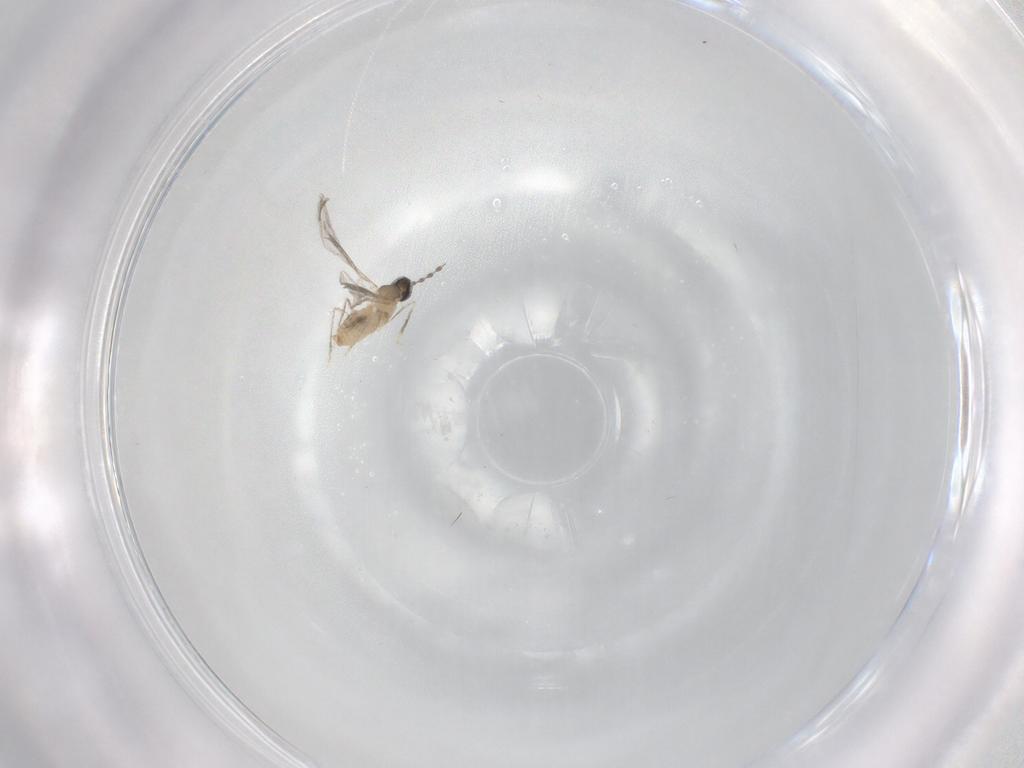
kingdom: Animalia
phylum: Arthropoda
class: Insecta
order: Diptera
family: Cecidomyiidae
